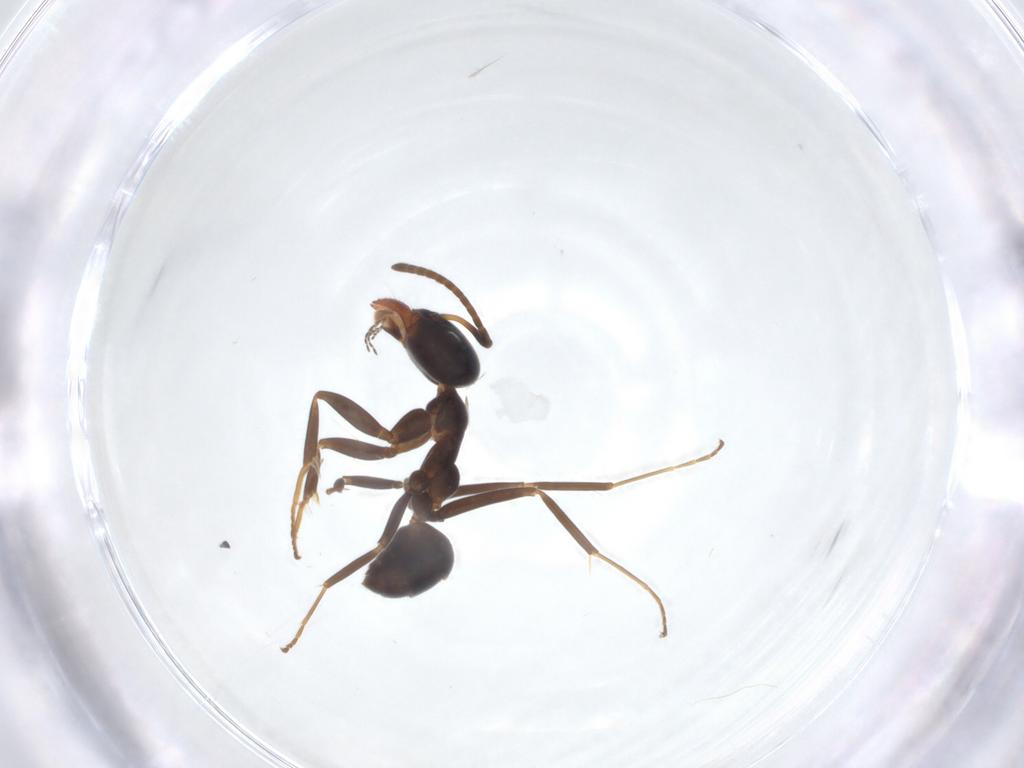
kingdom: Animalia
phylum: Arthropoda
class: Insecta
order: Hymenoptera
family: Formicidae
